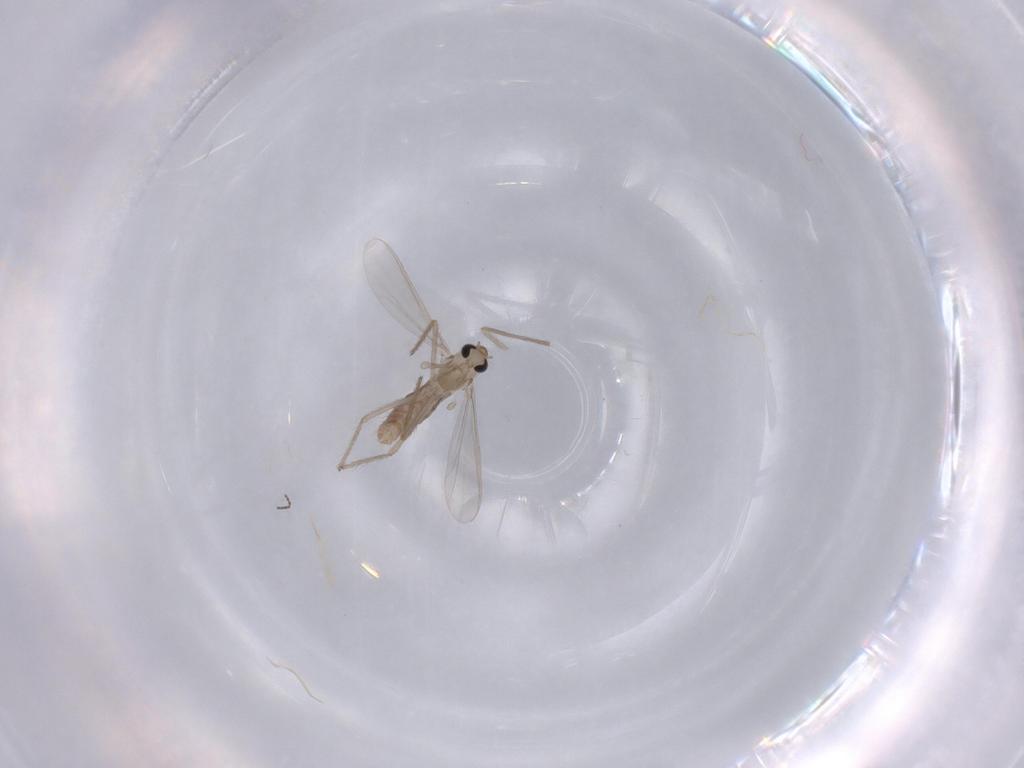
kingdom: Animalia
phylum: Arthropoda
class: Insecta
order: Diptera
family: Chironomidae
